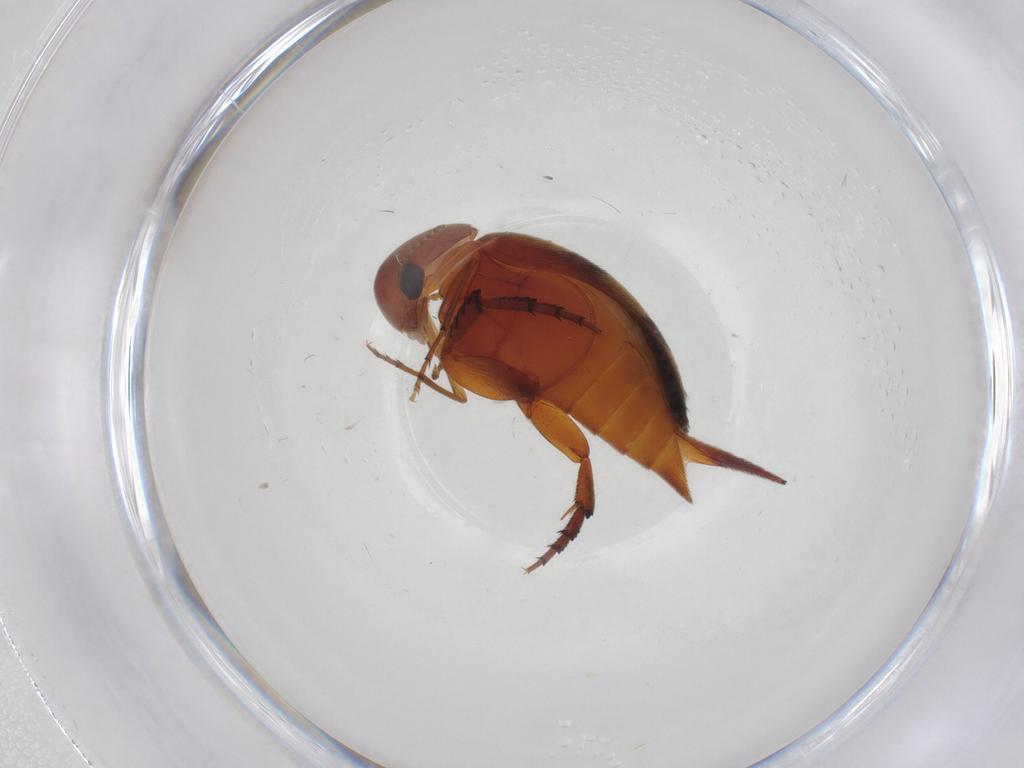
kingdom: Animalia
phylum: Arthropoda
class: Insecta
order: Coleoptera
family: Mordellidae
